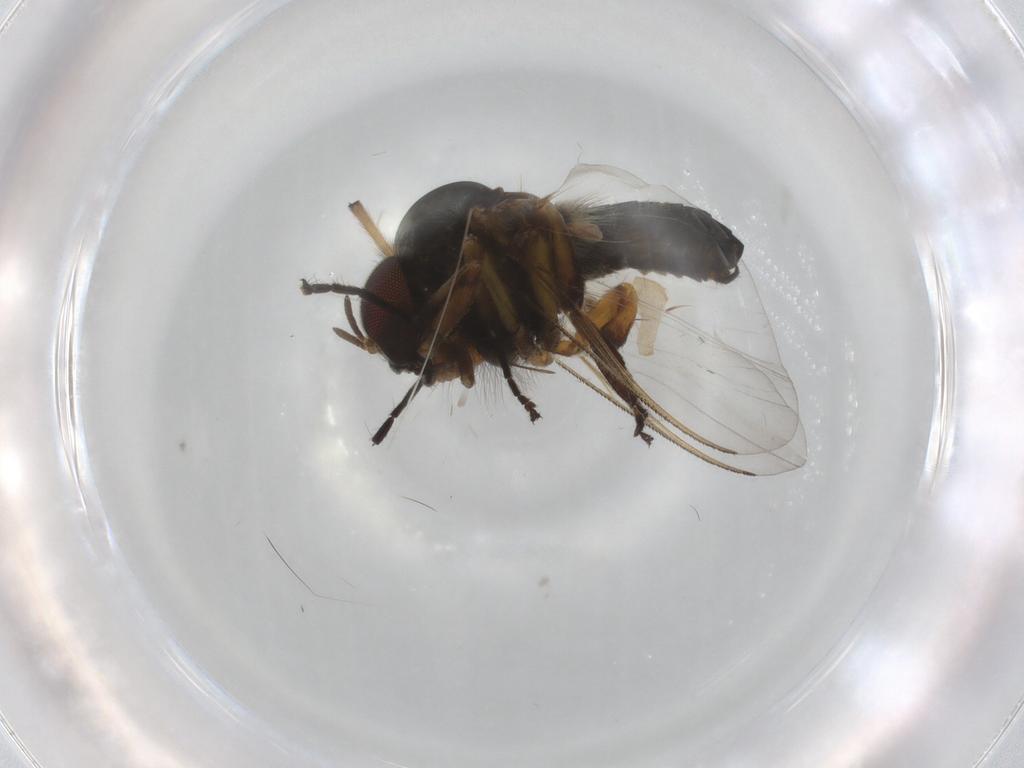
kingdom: Animalia
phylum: Arthropoda
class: Insecta
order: Diptera
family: Cecidomyiidae
